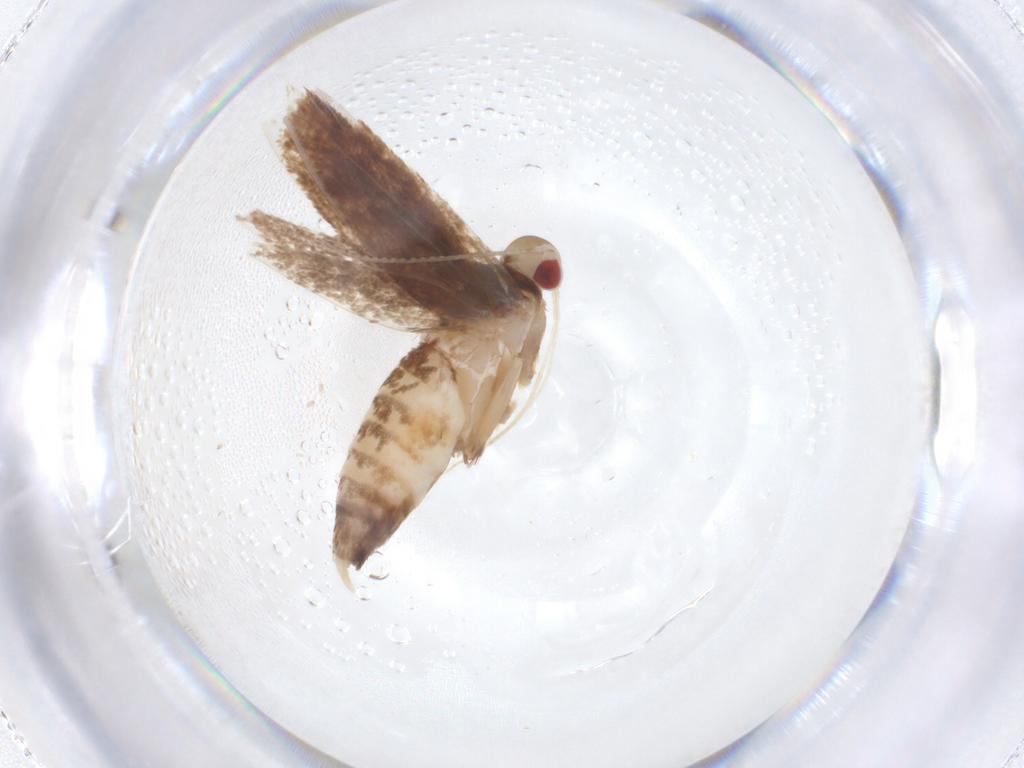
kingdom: Animalia
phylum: Arthropoda
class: Insecta
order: Lepidoptera
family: Cosmopterigidae
